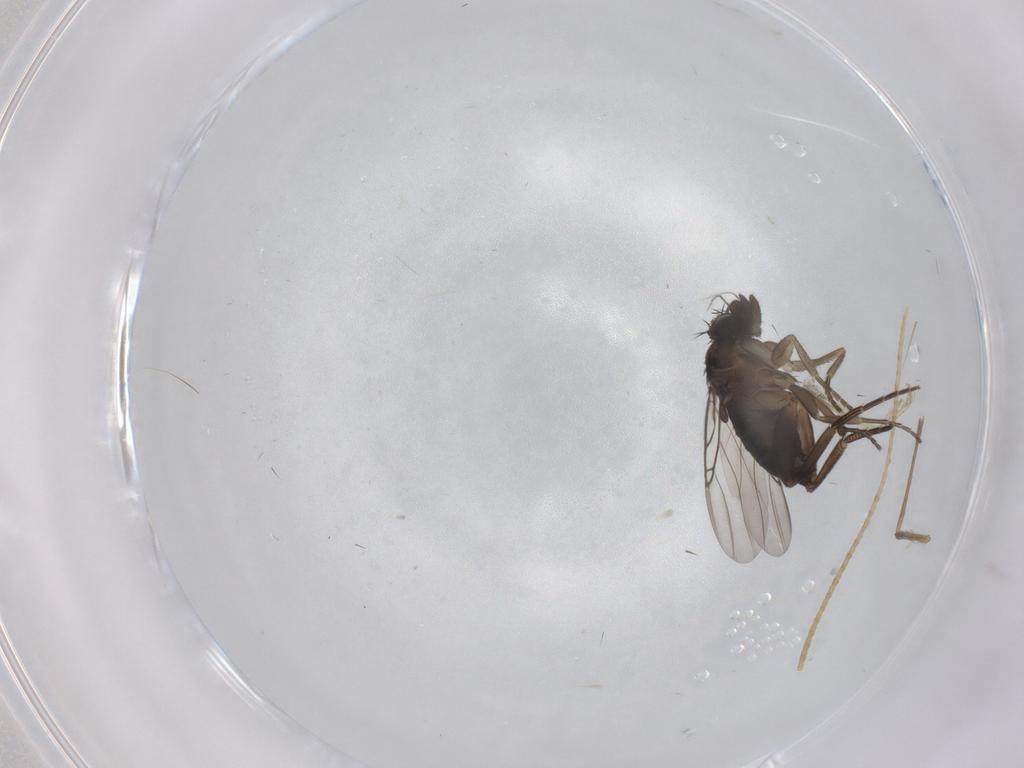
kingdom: Animalia
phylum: Arthropoda
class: Insecta
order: Diptera
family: Phoridae
